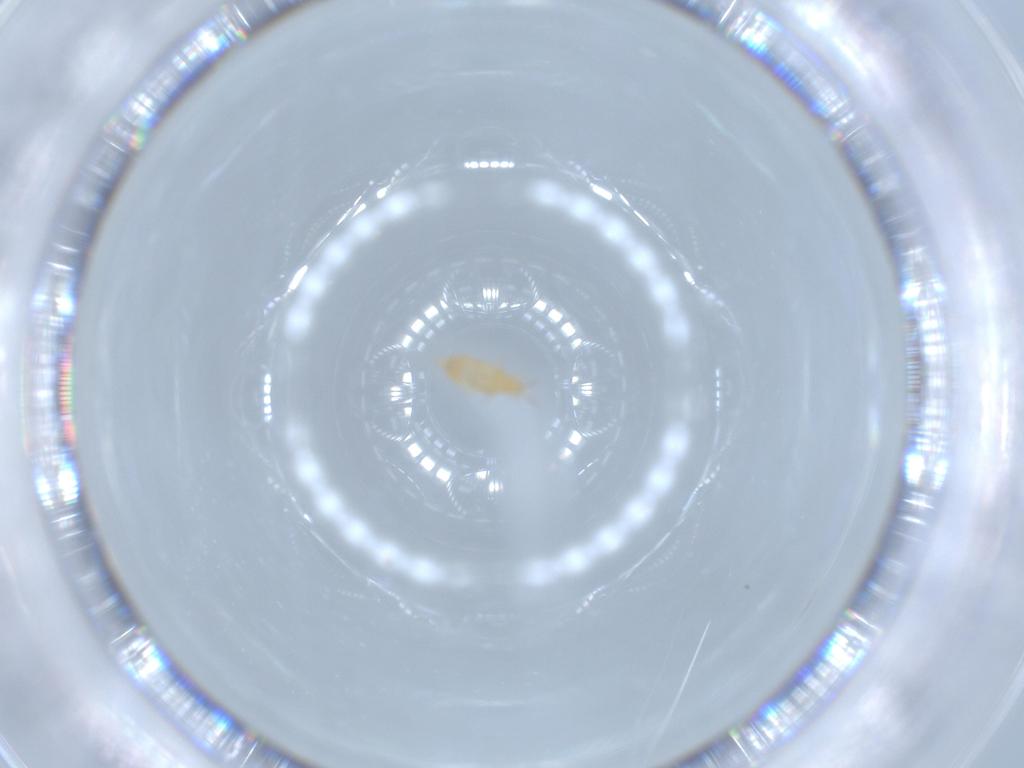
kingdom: Animalia
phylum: Arthropoda
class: Insecta
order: Thysanoptera
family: Heterothripidae
